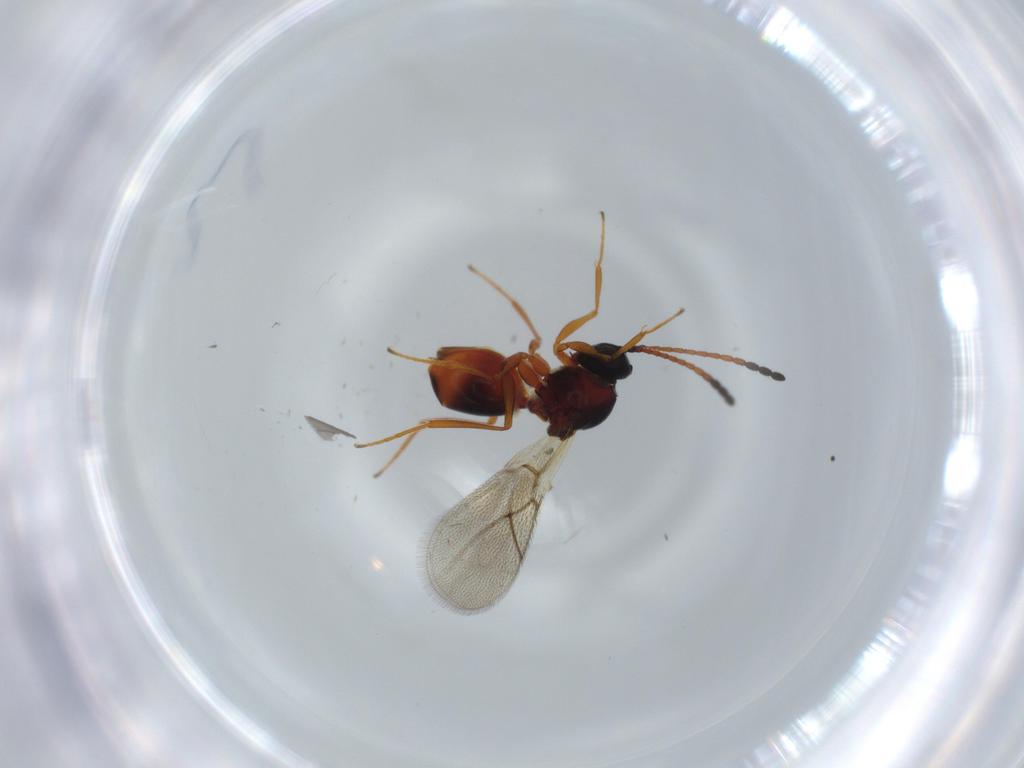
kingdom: Animalia
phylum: Arthropoda
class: Insecta
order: Hymenoptera
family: Figitidae
